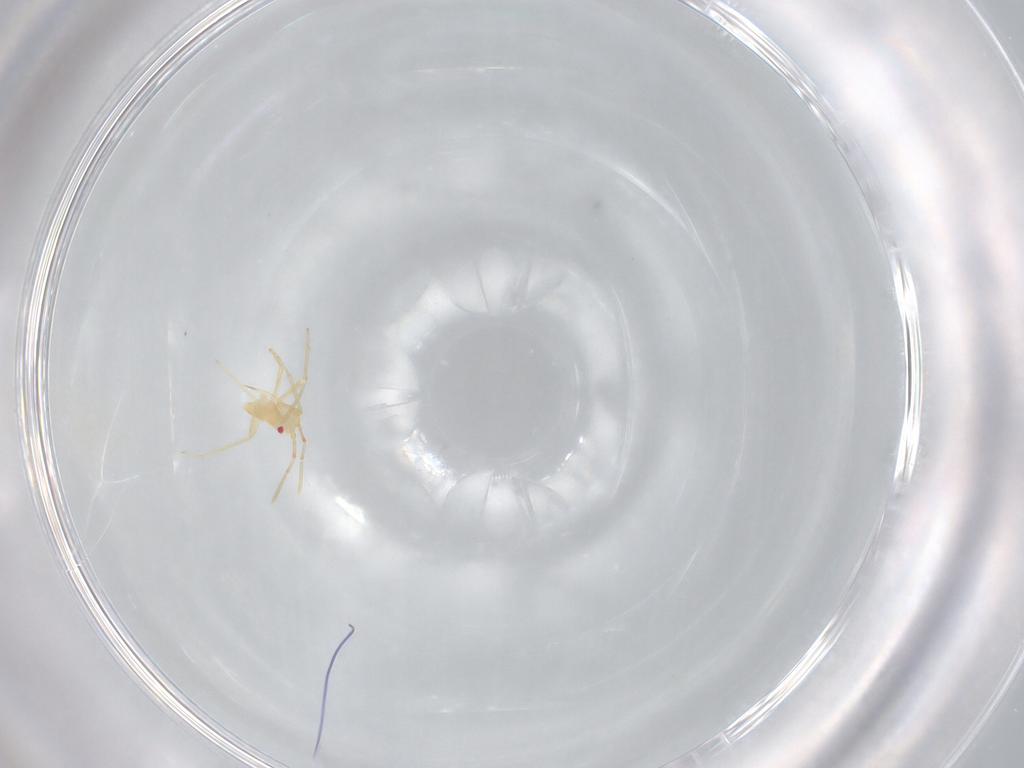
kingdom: Animalia
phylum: Arthropoda
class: Insecta
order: Hemiptera
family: Miridae
